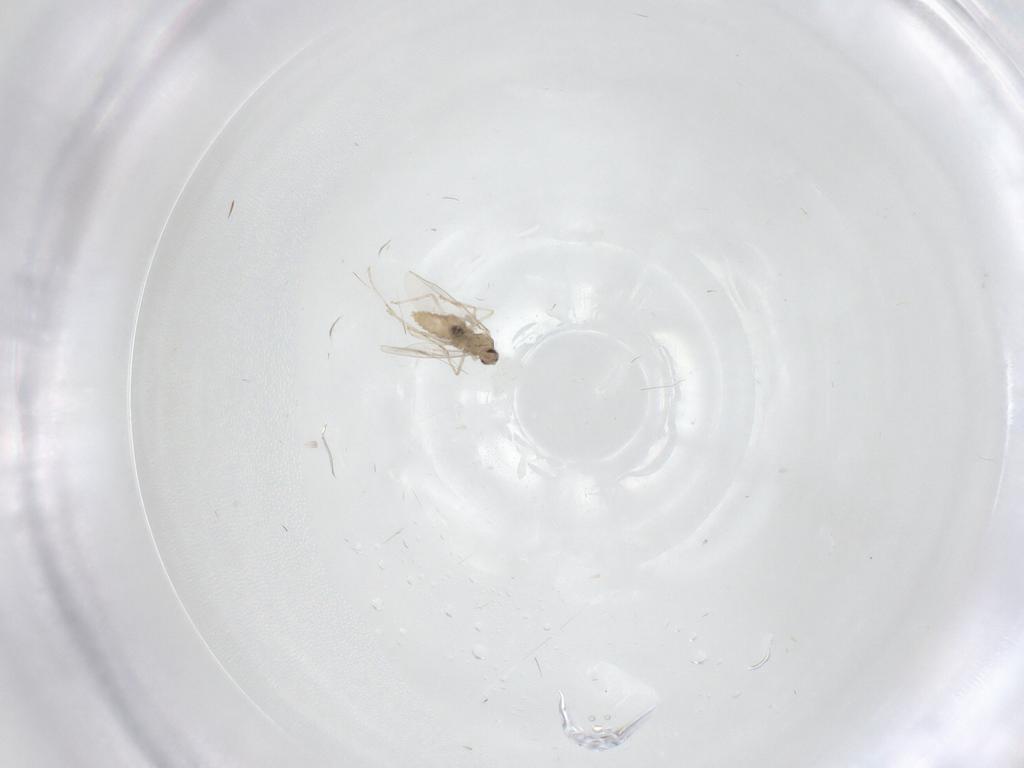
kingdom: Animalia
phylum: Arthropoda
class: Insecta
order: Diptera
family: Cecidomyiidae
